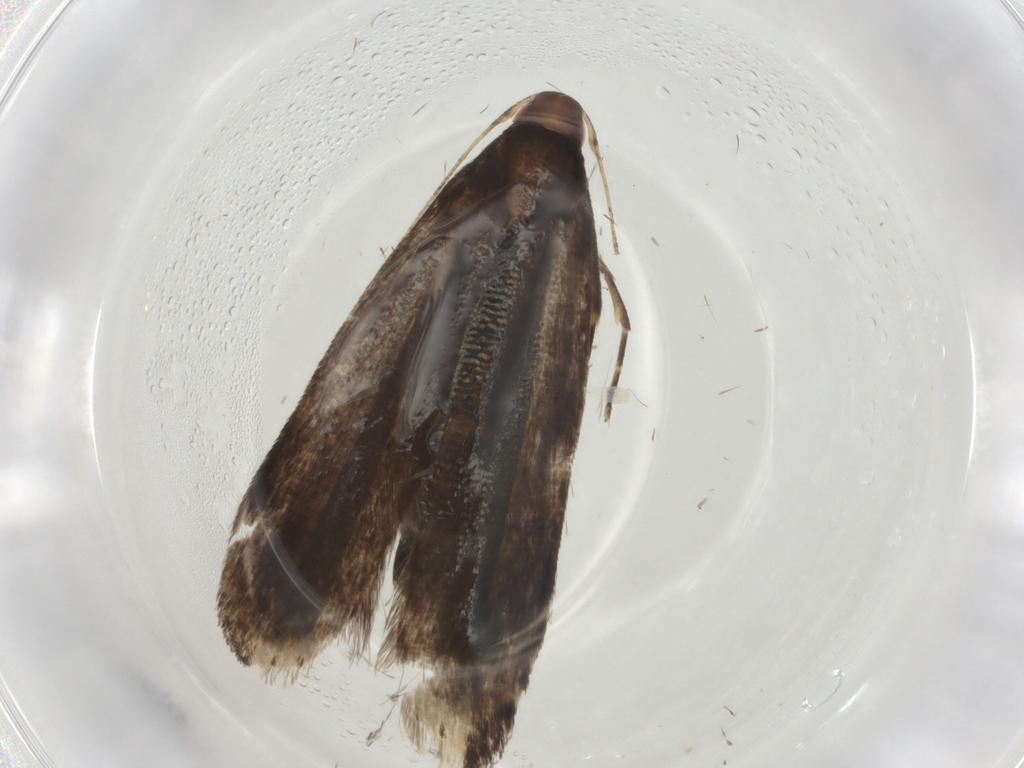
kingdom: Animalia
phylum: Arthropoda
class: Insecta
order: Lepidoptera
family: Gelechiidae
